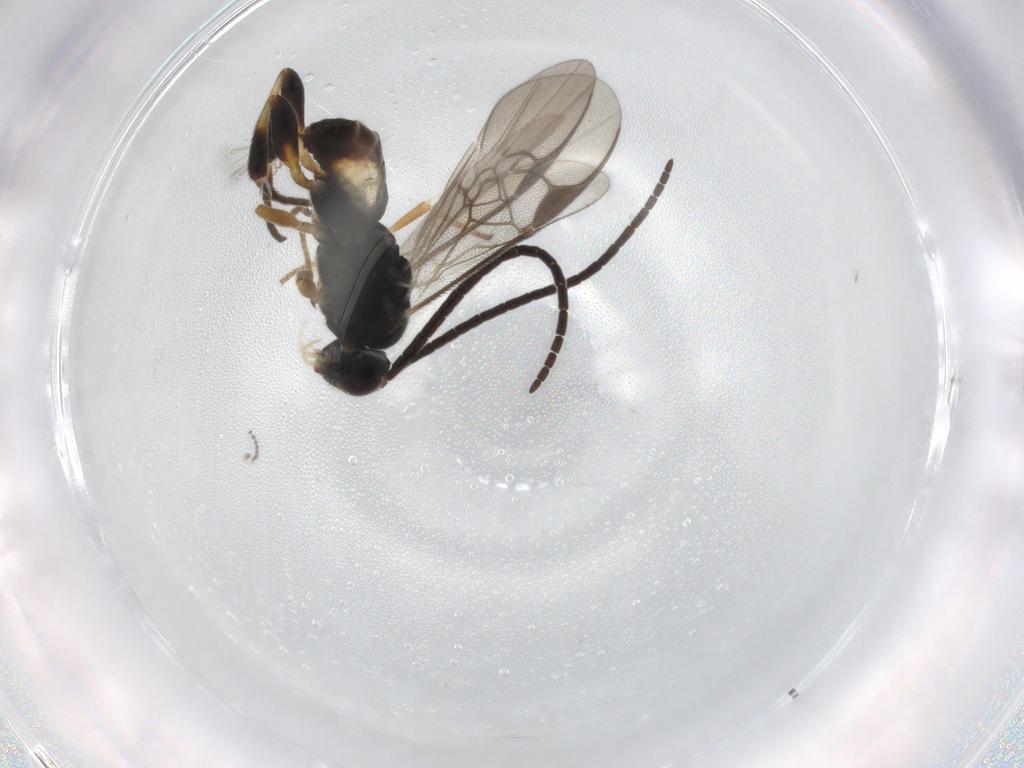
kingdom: Animalia
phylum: Arthropoda
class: Insecta
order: Hymenoptera
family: Braconidae
